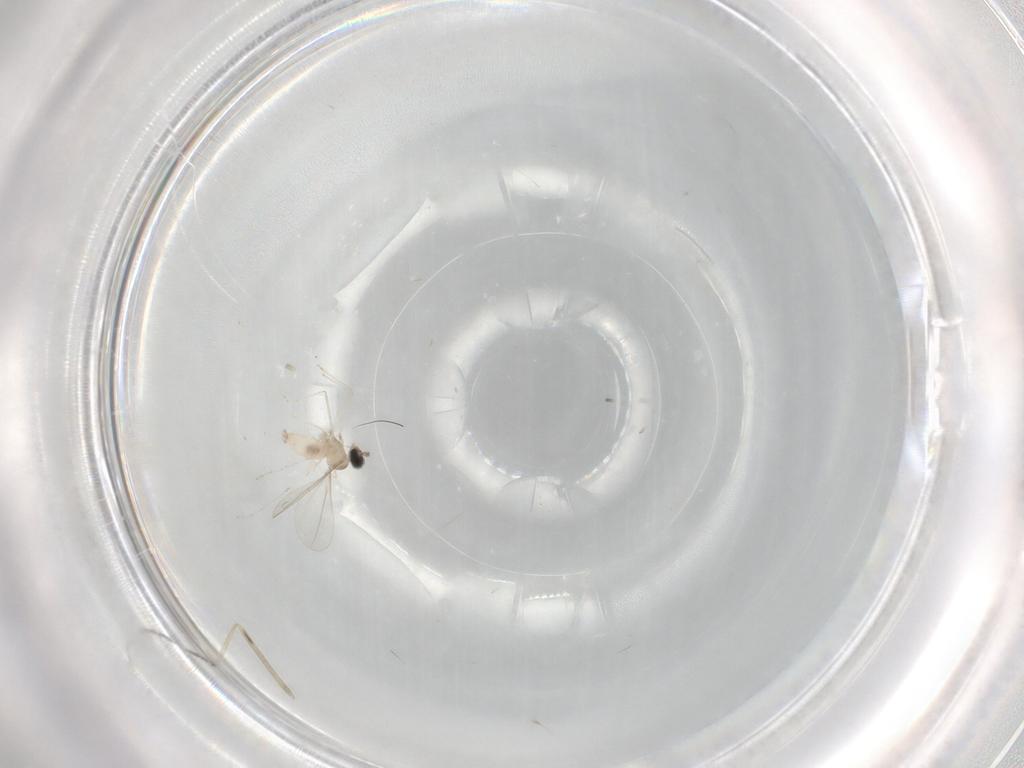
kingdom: Animalia
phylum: Arthropoda
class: Insecta
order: Diptera
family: Cecidomyiidae
